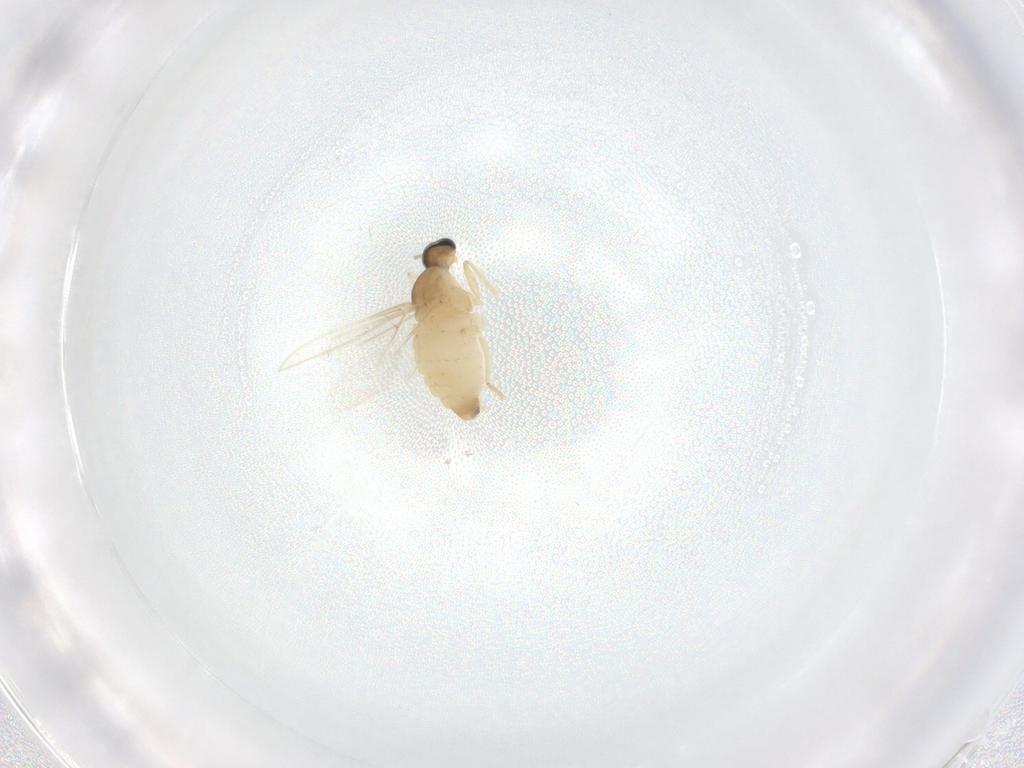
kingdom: Animalia
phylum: Arthropoda
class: Insecta
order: Diptera
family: Cecidomyiidae
